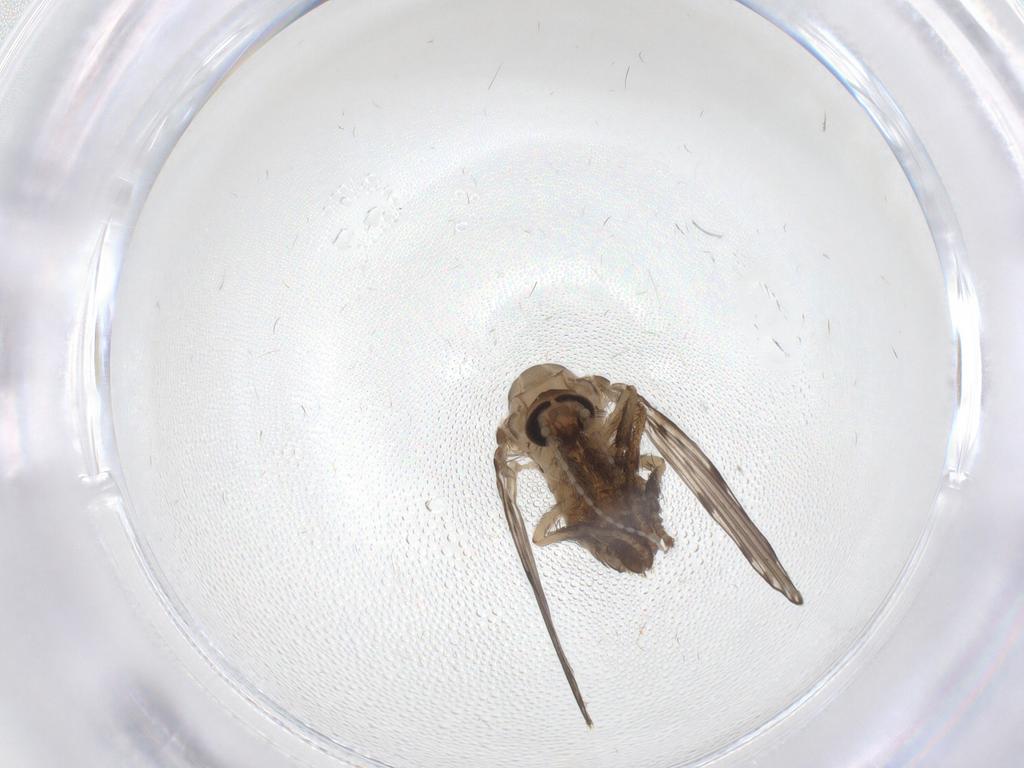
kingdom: Animalia
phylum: Arthropoda
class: Insecta
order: Diptera
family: Psychodidae
